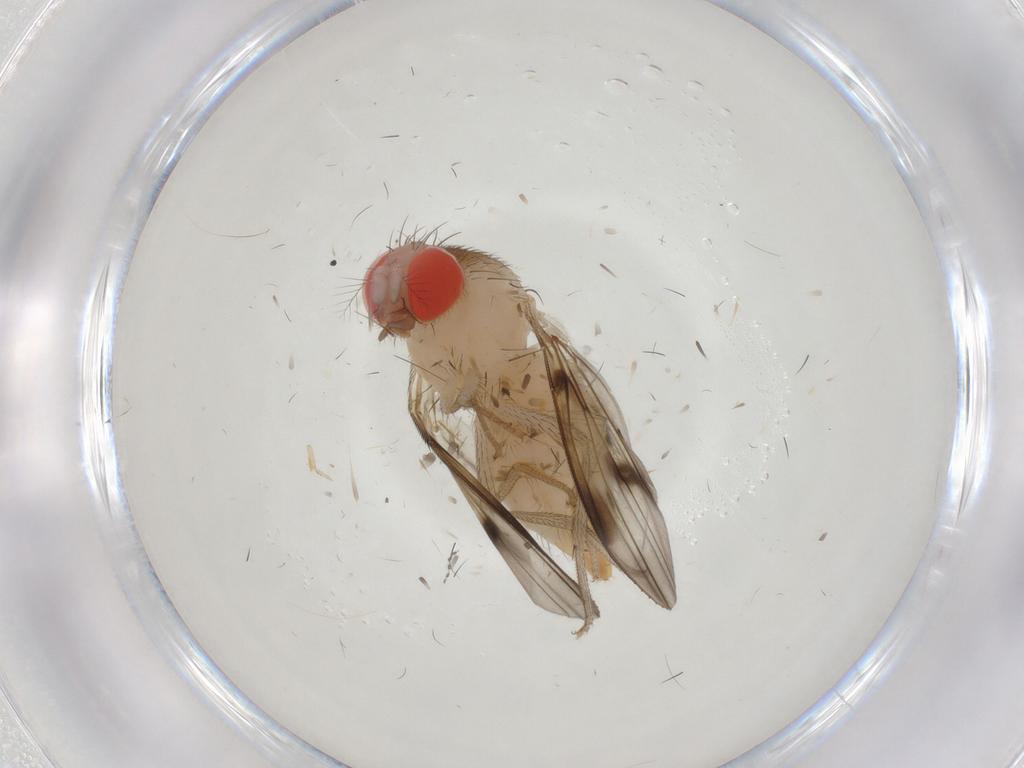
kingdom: Animalia
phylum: Arthropoda
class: Insecta
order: Diptera
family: Drosophilidae
